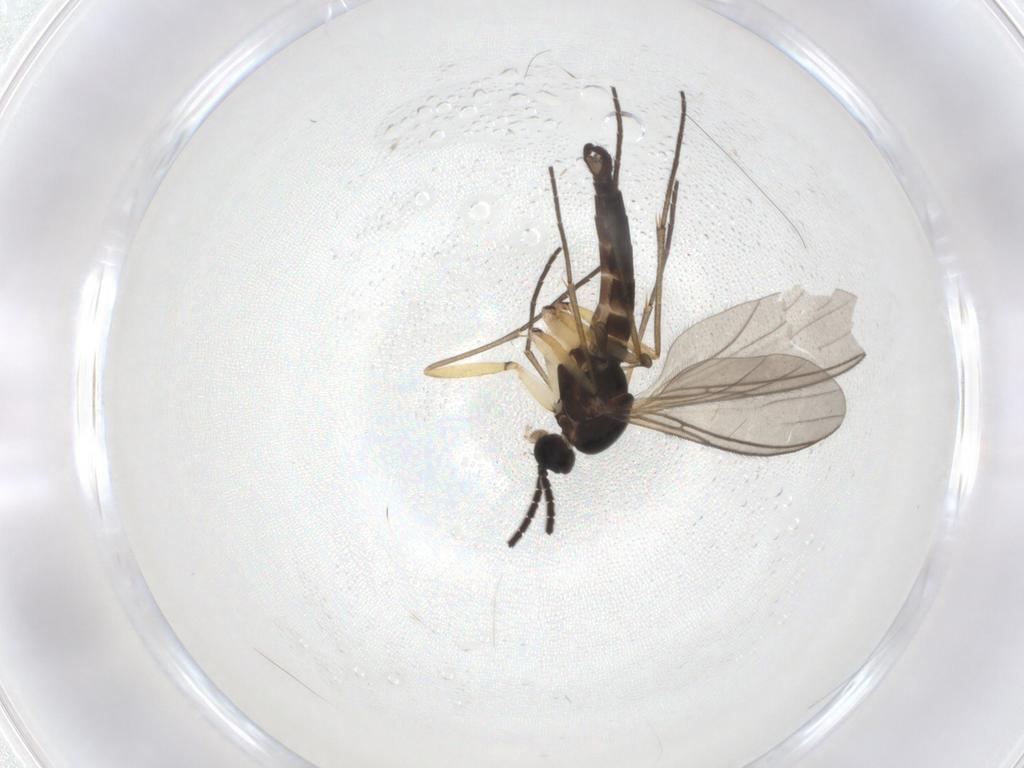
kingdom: Animalia
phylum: Arthropoda
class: Insecta
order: Diptera
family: Sciaridae
